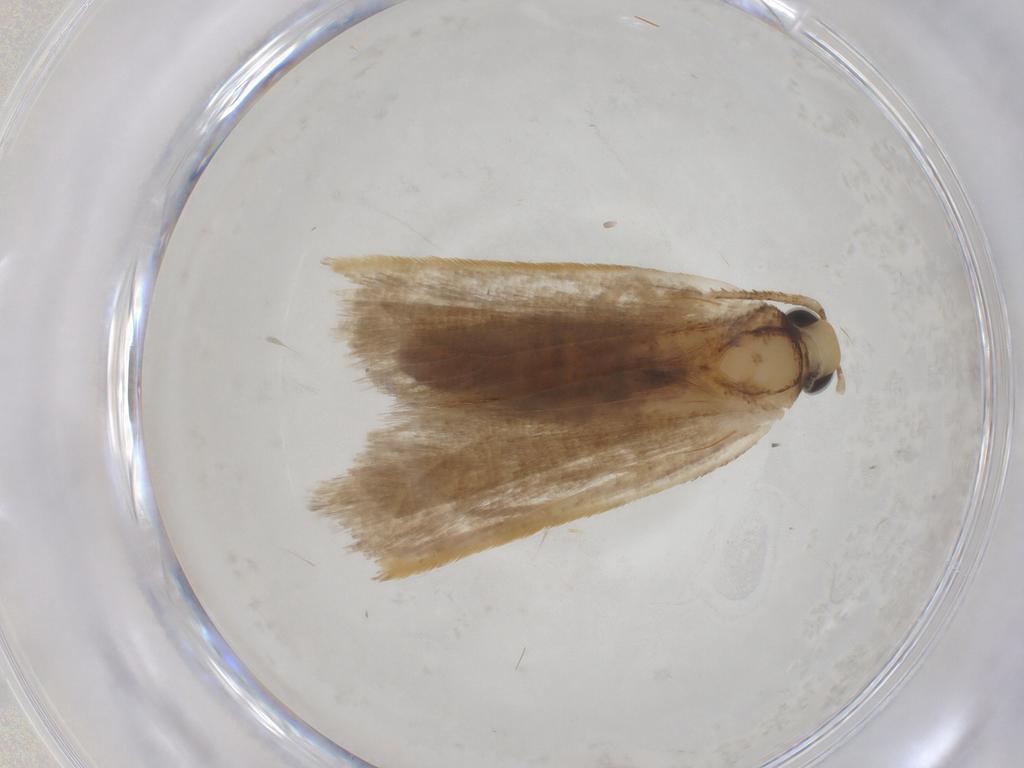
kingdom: Animalia
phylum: Arthropoda
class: Insecta
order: Lepidoptera
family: Gelechiidae
